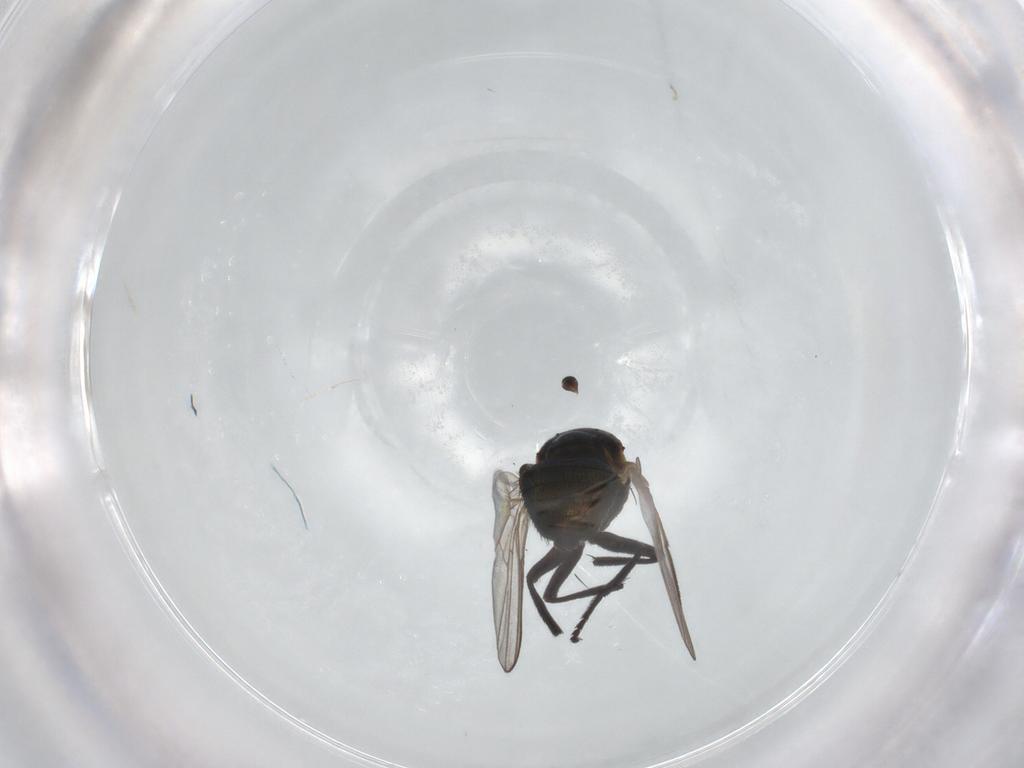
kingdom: Animalia
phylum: Arthropoda
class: Insecta
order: Diptera
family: Agromyzidae
